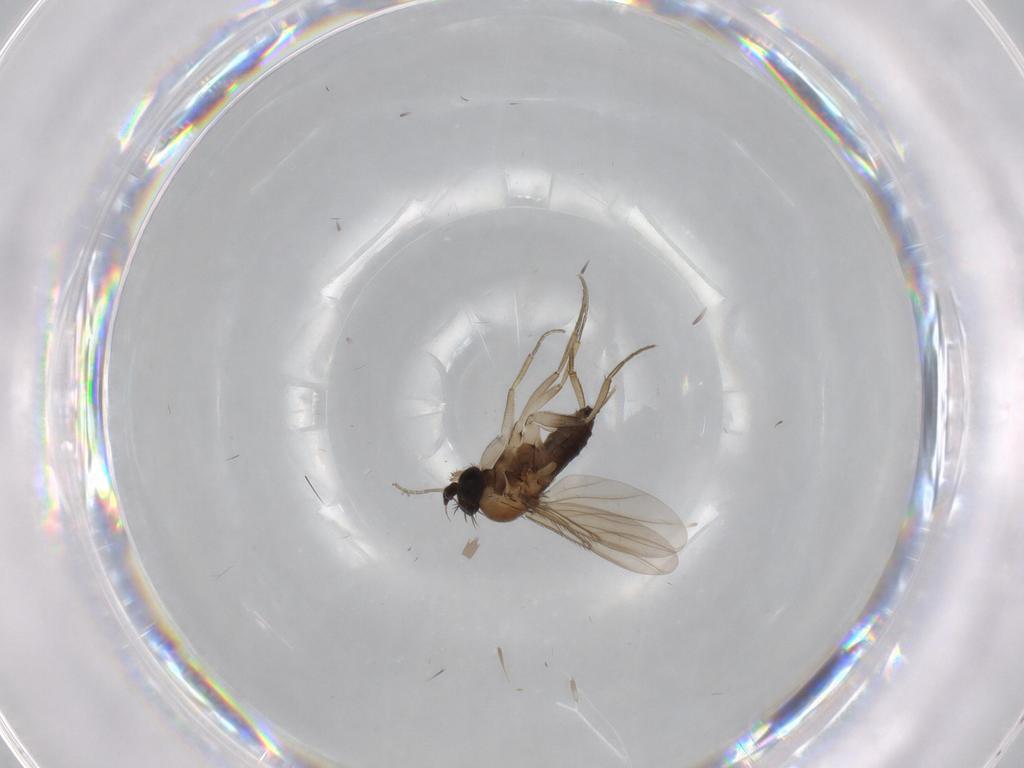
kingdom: Animalia
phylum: Arthropoda
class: Insecta
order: Diptera
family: Phoridae
